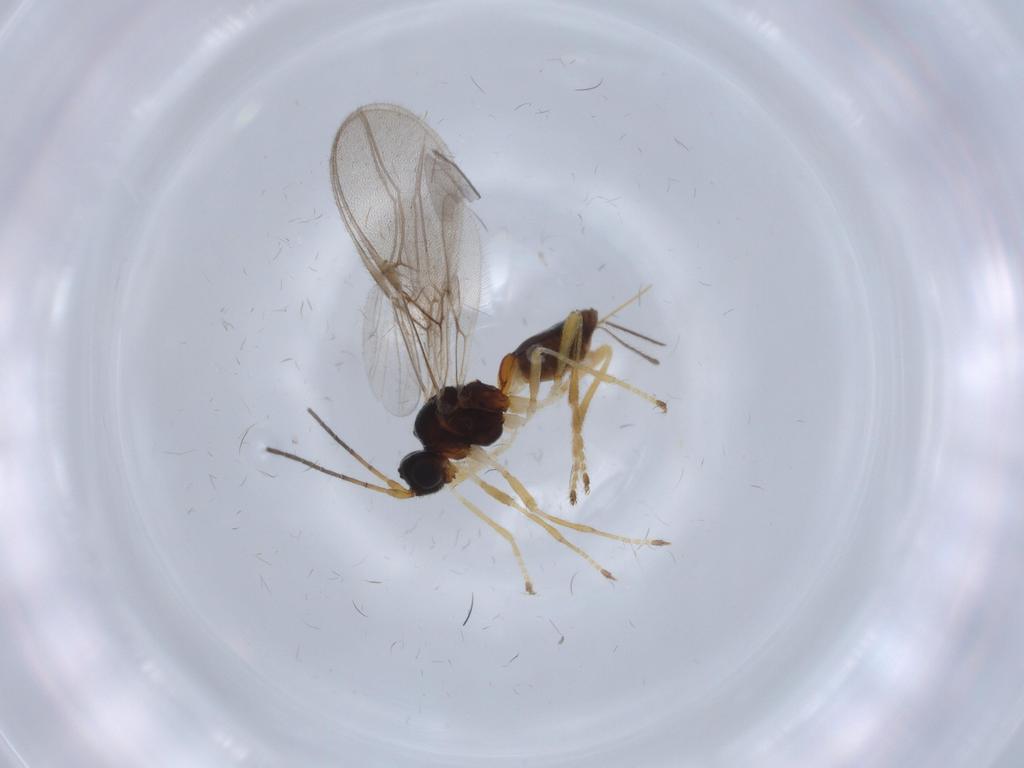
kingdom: Animalia
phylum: Arthropoda
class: Insecta
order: Hymenoptera
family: Braconidae
